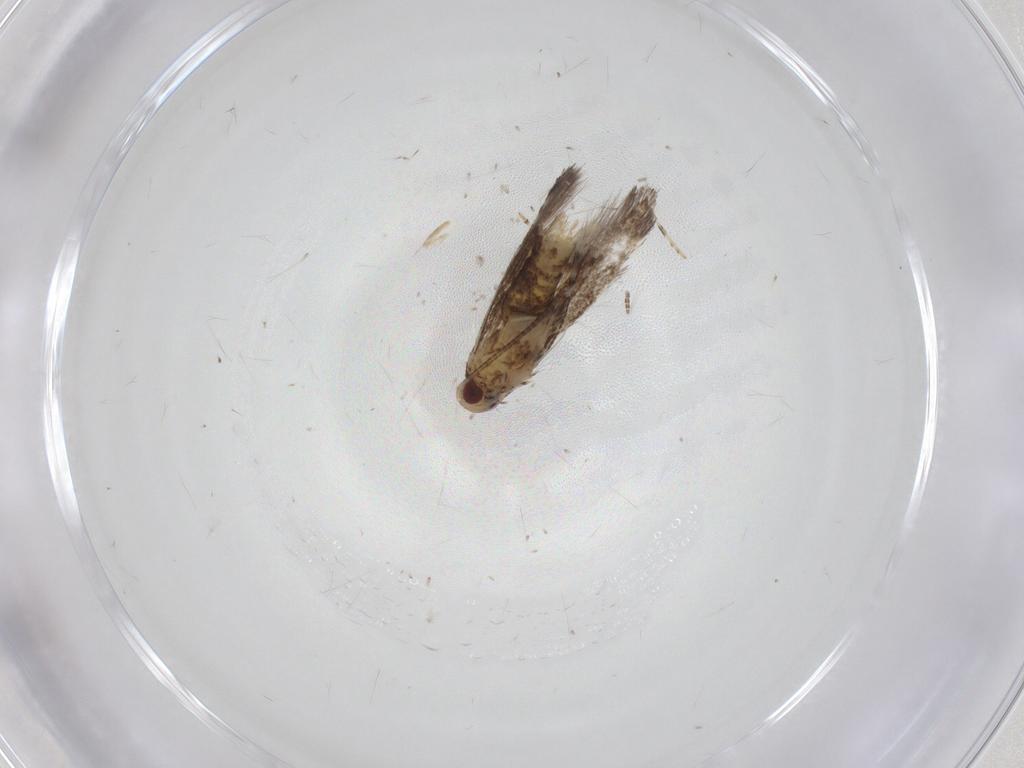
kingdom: Animalia
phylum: Arthropoda
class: Insecta
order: Lepidoptera
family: Gracillariidae
